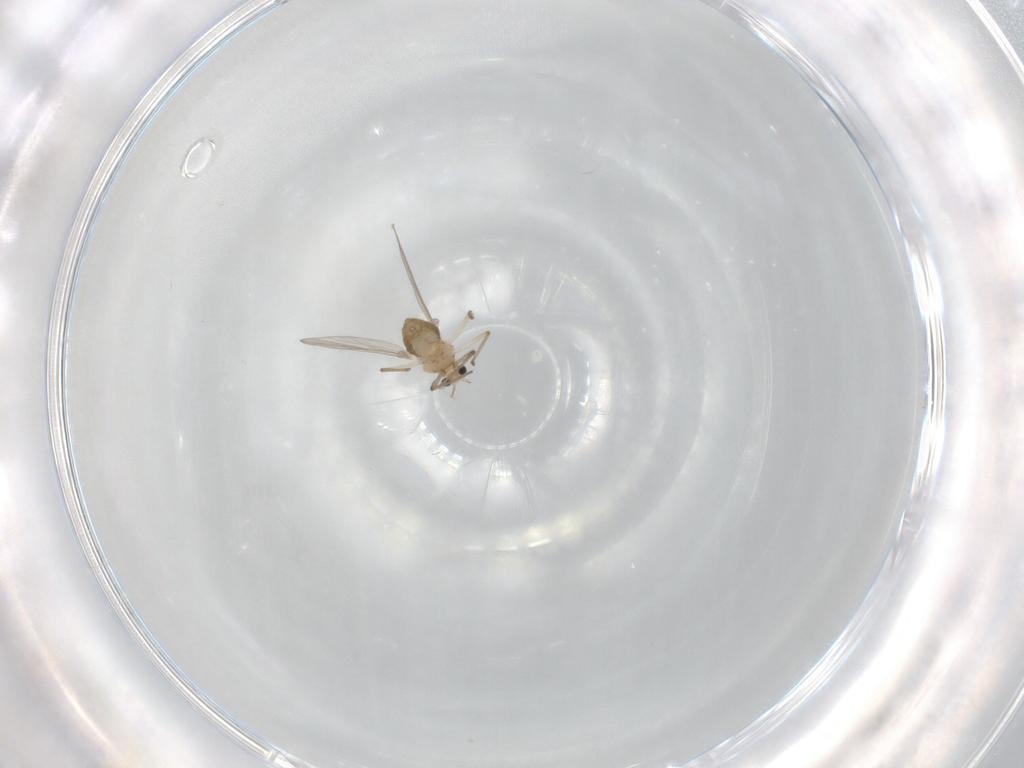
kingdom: Animalia
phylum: Arthropoda
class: Insecta
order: Diptera
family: Chironomidae
